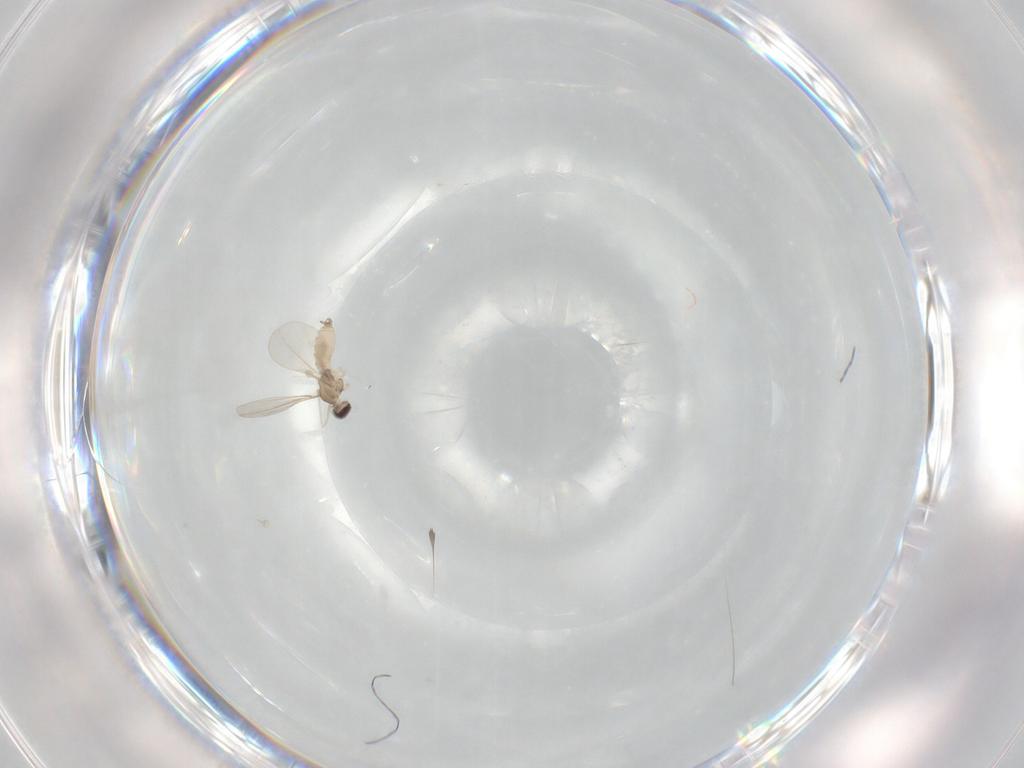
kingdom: Animalia
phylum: Arthropoda
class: Insecta
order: Diptera
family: Cecidomyiidae
